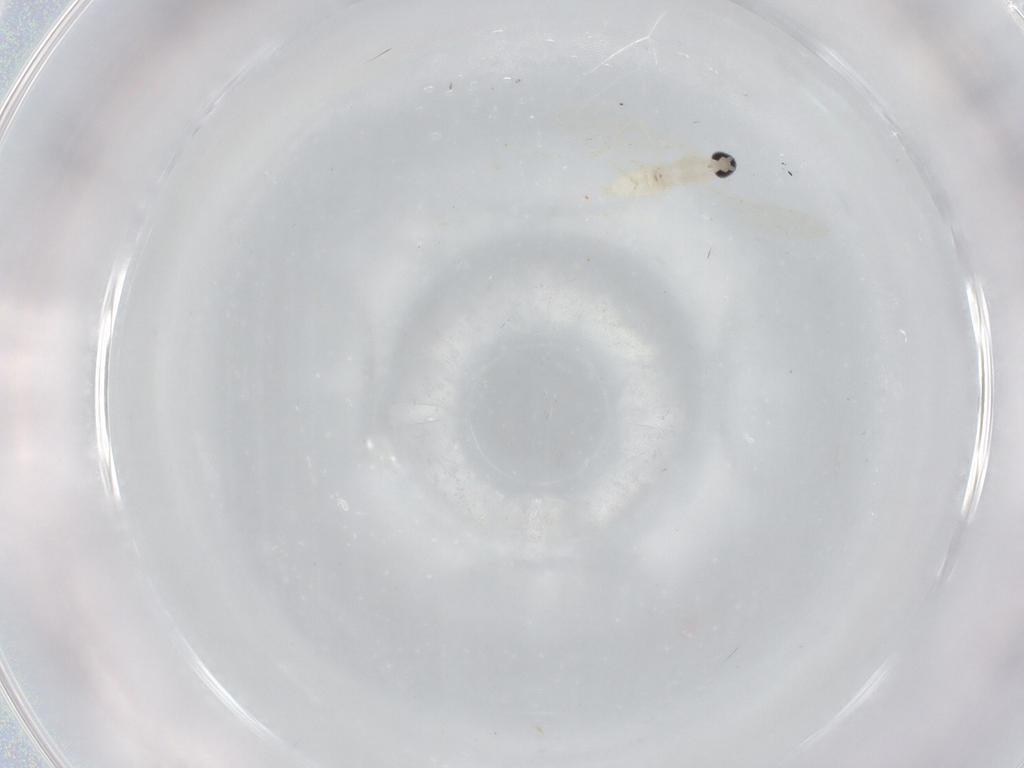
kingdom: Animalia
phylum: Arthropoda
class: Insecta
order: Diptera
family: Cecidomyiidae
